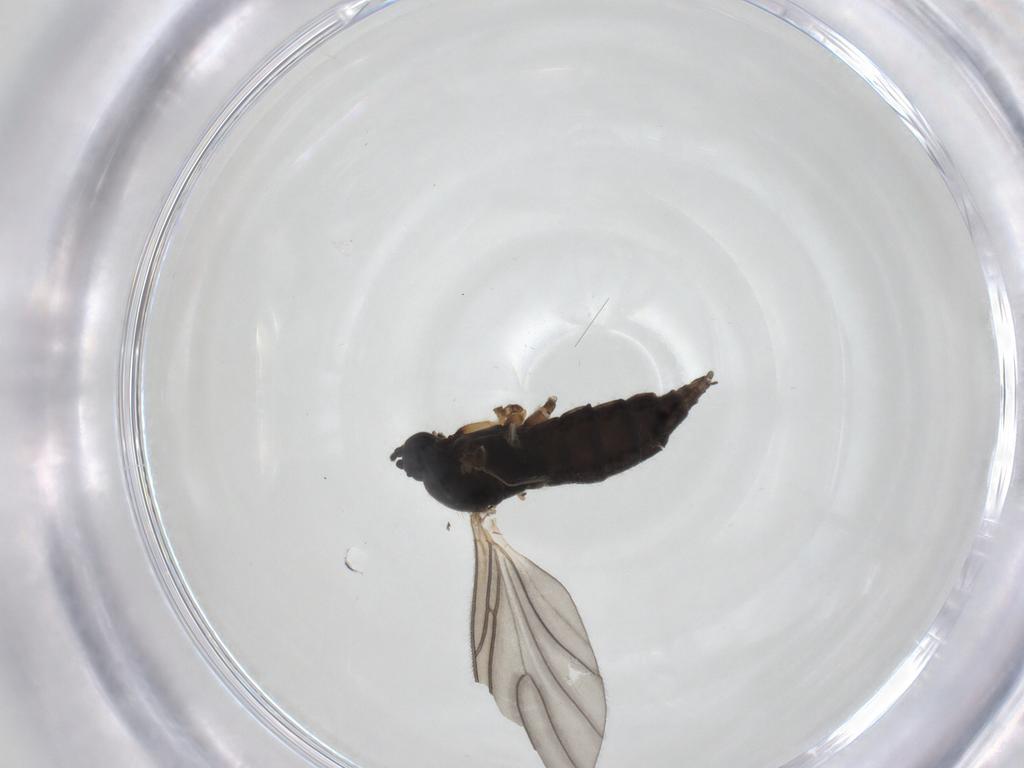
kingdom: Animalia
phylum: Arthropoda
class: Insecta
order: Diptera
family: Sciaridae
